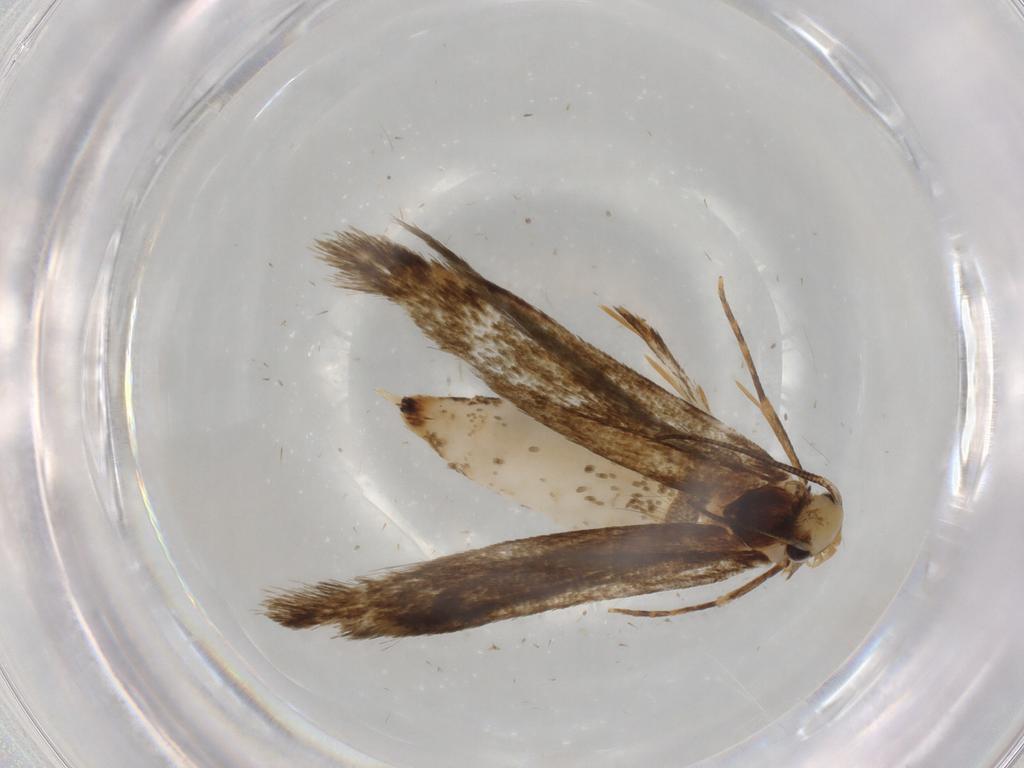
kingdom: Animalia
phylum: Arthropoda
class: Insecta
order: Lepidoptera
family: Tineidae
